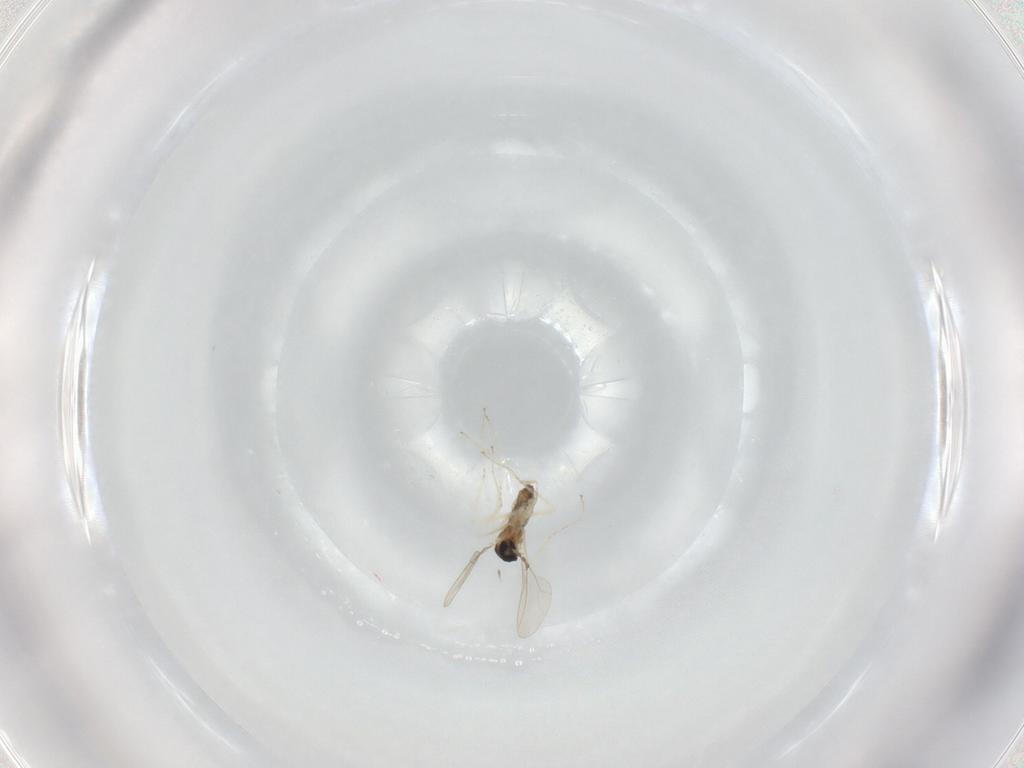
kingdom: Animalia
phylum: Arthropoda
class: Insecta
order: Diptera
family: Cecidomyiidae
